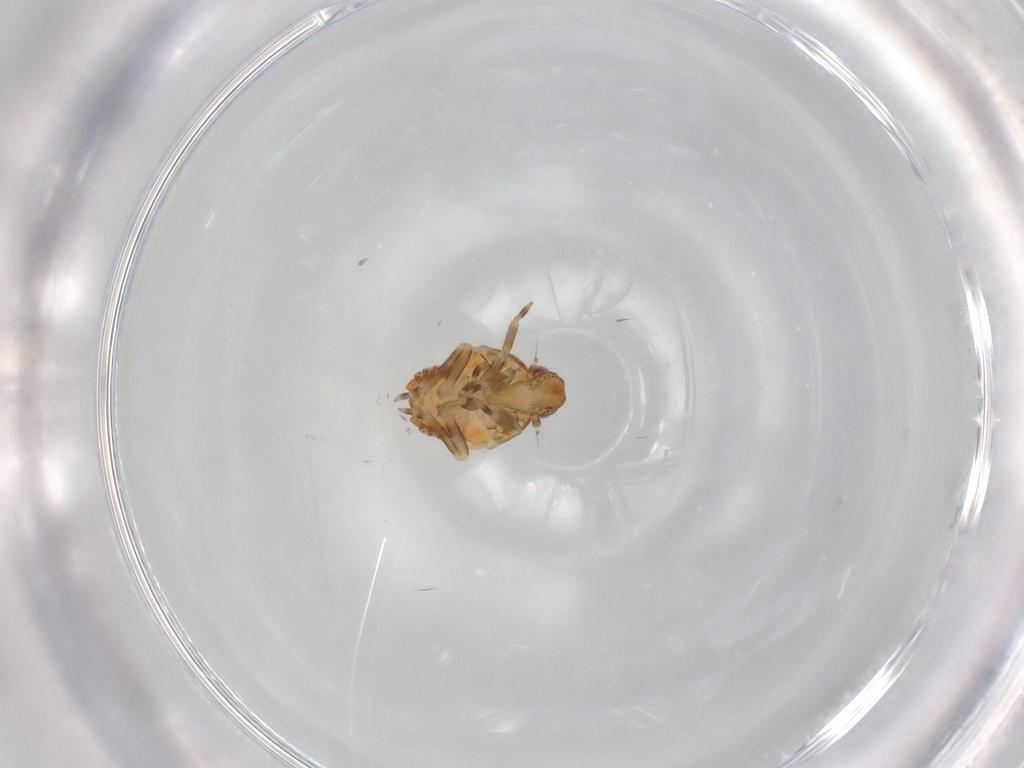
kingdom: Animalia
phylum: Arthropoda
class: Insecta
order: Hemiptera
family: Flatidae
